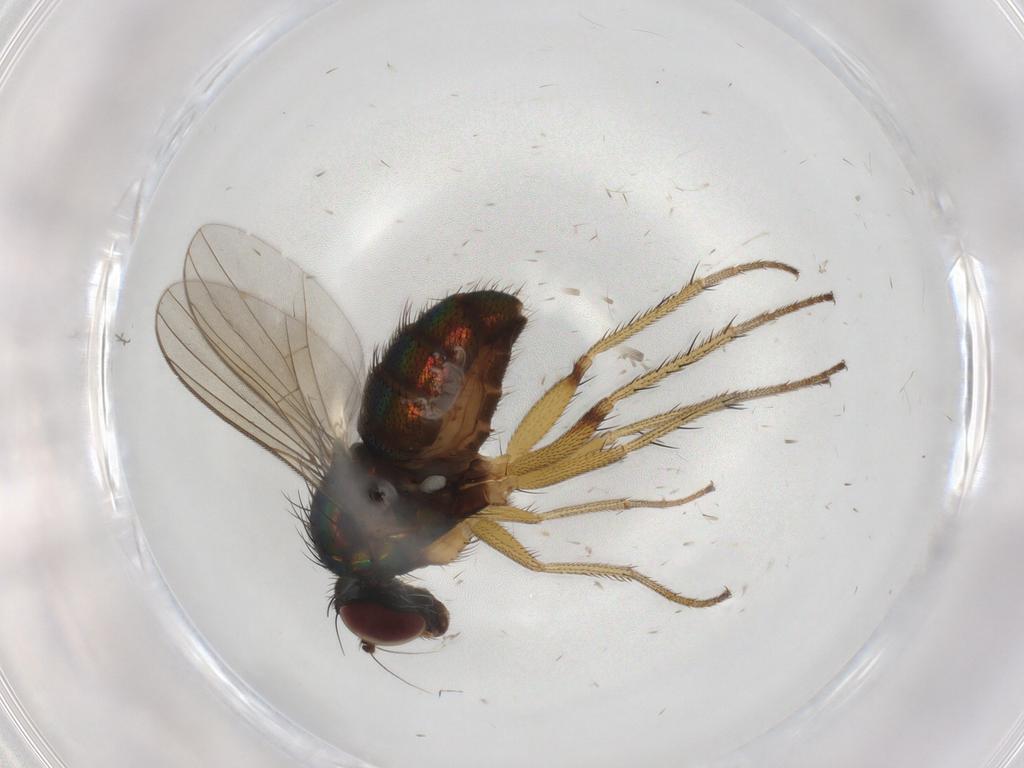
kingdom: Animalia
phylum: Arthropoda
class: Insecta
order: Diptera
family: Dolichopodidae
